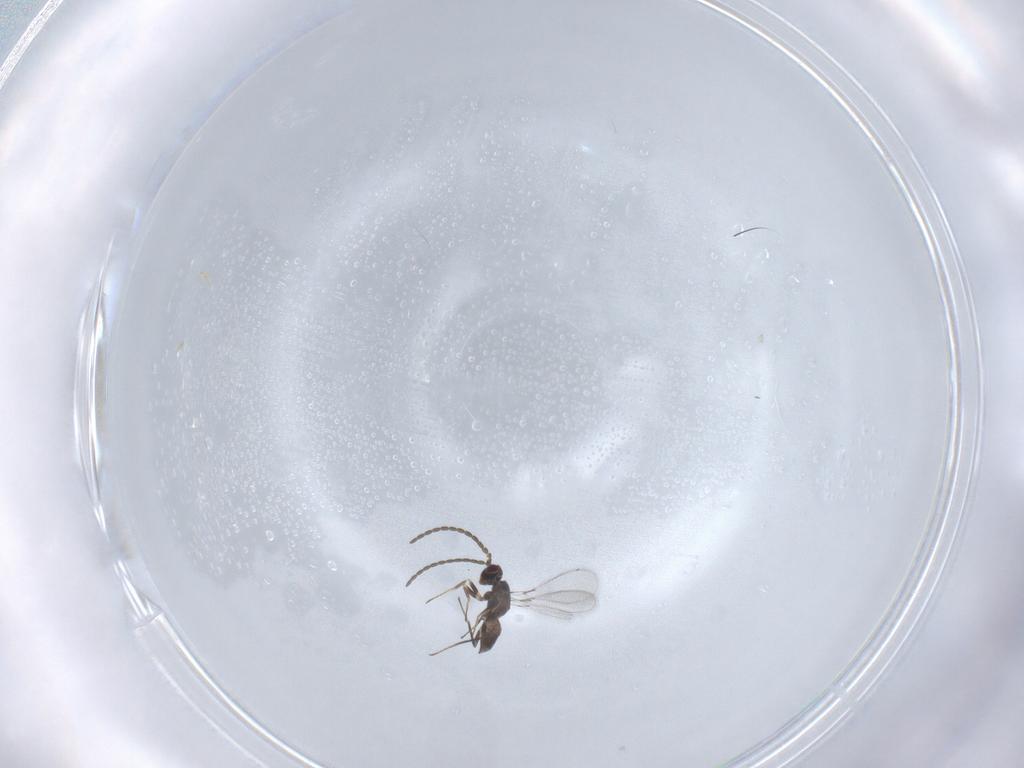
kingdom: Animalia
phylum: Arthropoda
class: Insecta
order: Hymenoptera
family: Mymaridae
